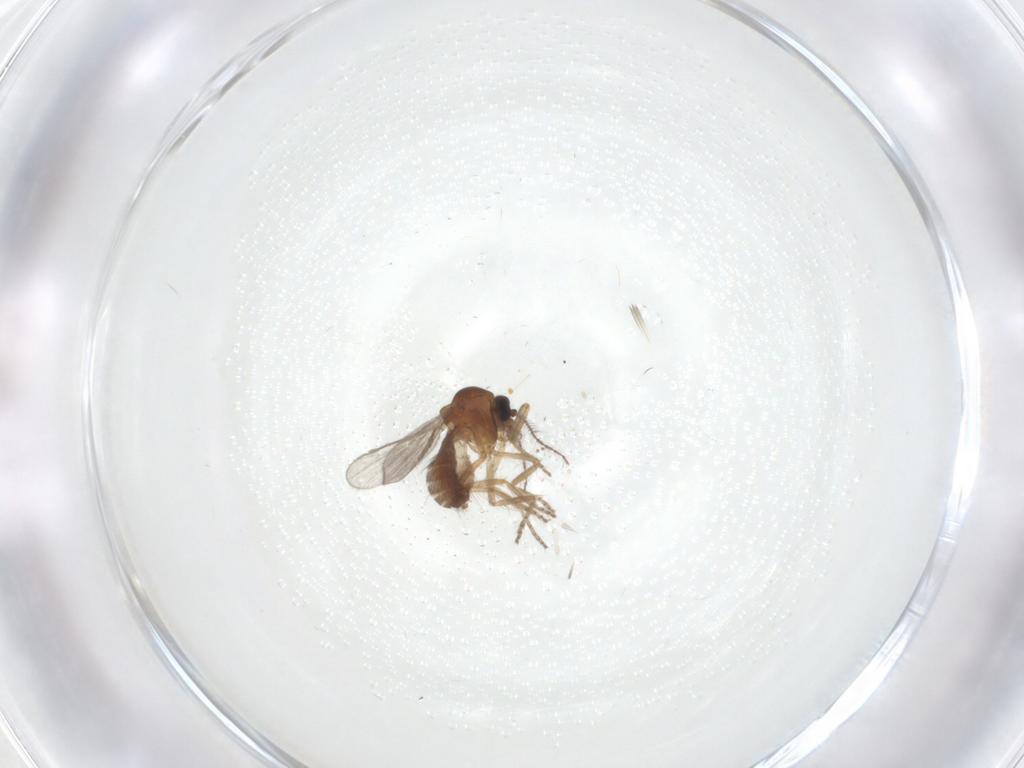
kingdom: Animalia
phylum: Arthropoda
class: Insecta
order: Diptera
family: Ceratopogonidae
